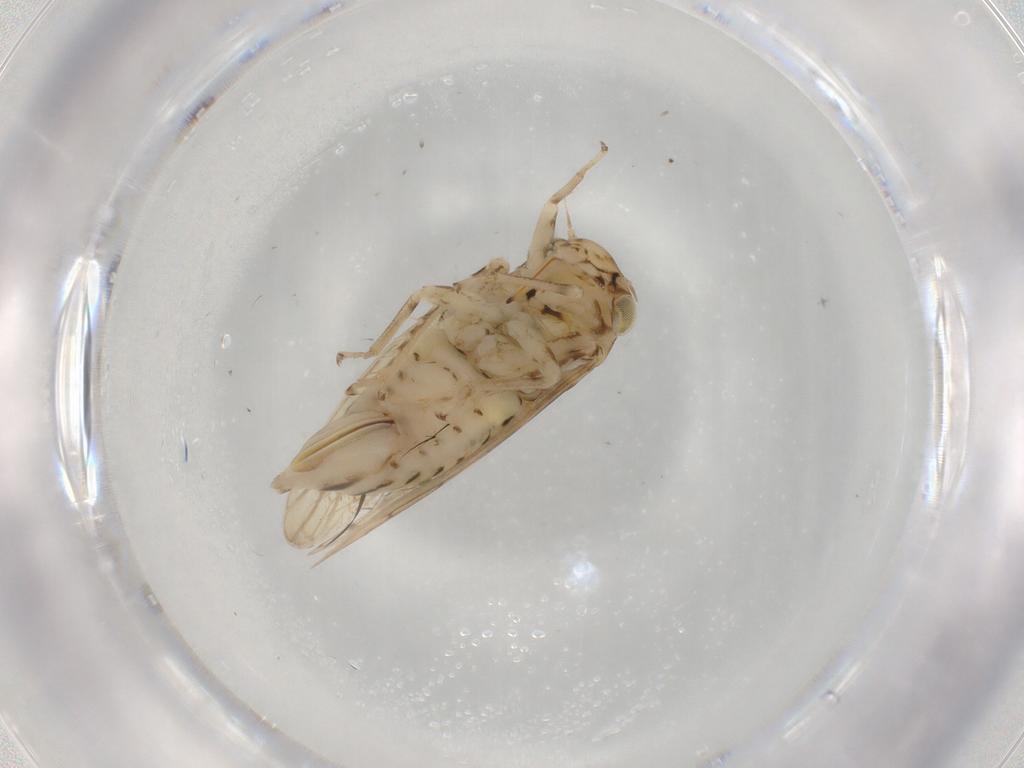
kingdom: Animalia
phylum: Arthropoda
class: Insecta
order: Hemiptera
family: Cicadellidae
